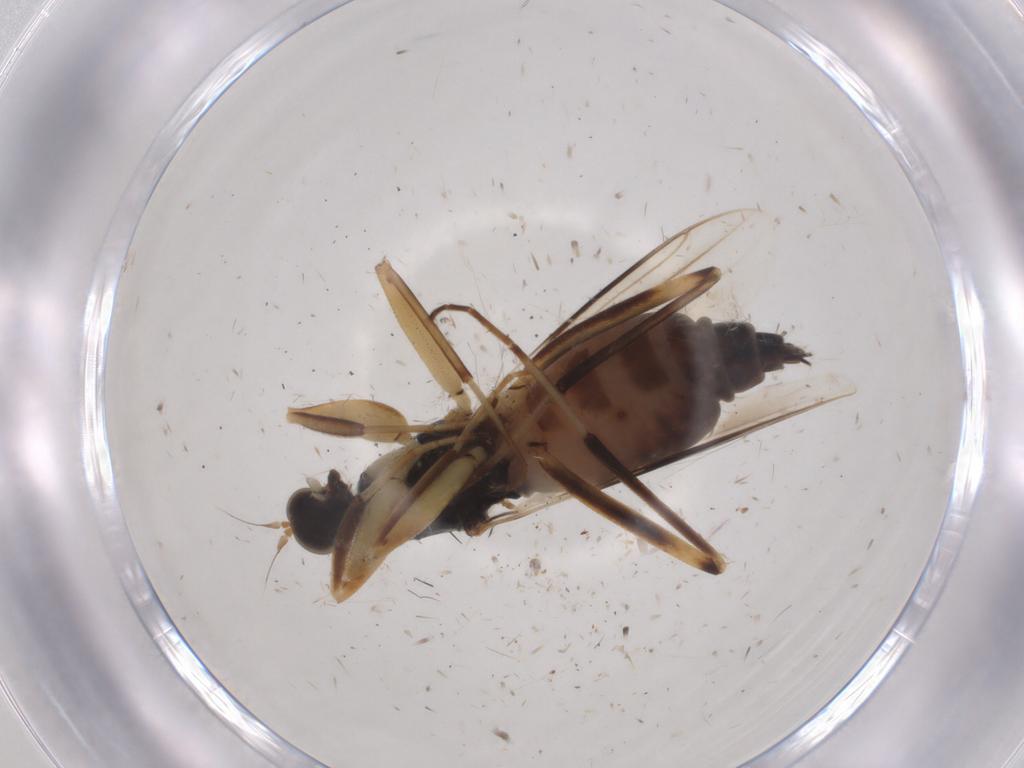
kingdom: Animalia
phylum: Arthropoda
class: Insecta
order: Diptera
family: Hybotidae
